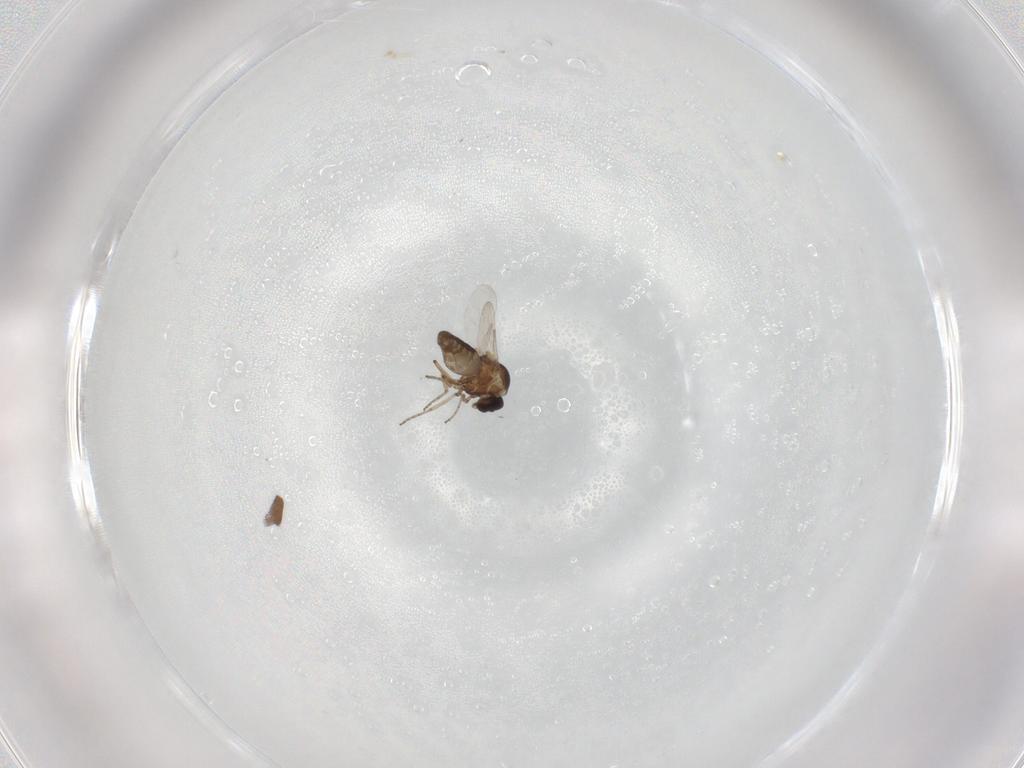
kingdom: Animalia
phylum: Arthropoda
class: Insecta
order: Diptera
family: Ceratopogonidae
